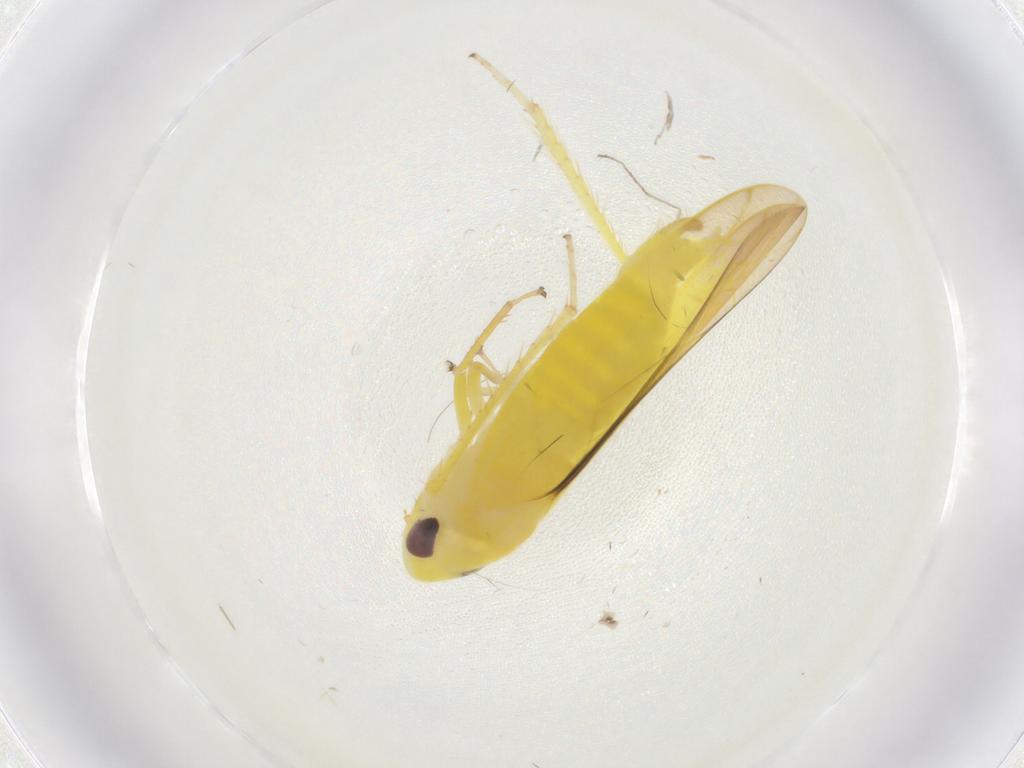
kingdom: Animalia
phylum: Arthropoda
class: Insecta
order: Hemiptera
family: Cicadellidae
